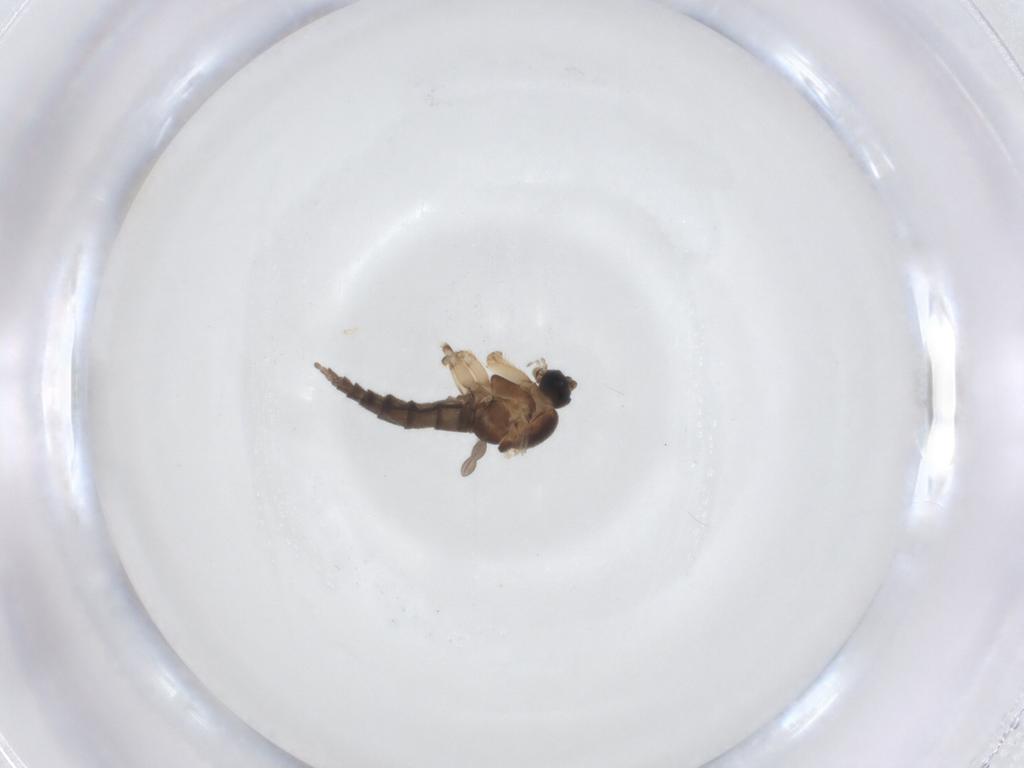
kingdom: Animalia
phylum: Arthropoda
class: Insecta
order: Diptera
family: Sciaridae
